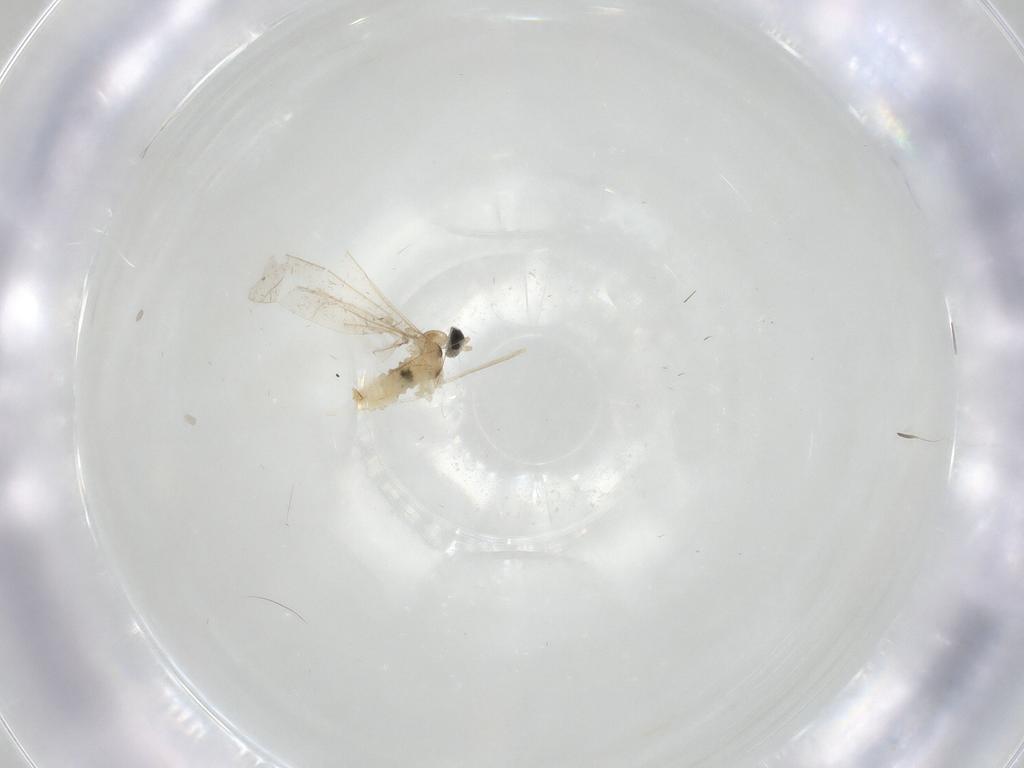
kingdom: Animalia
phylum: Arthropoda
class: Insecta
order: Diptera
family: Cecidomyiidae
